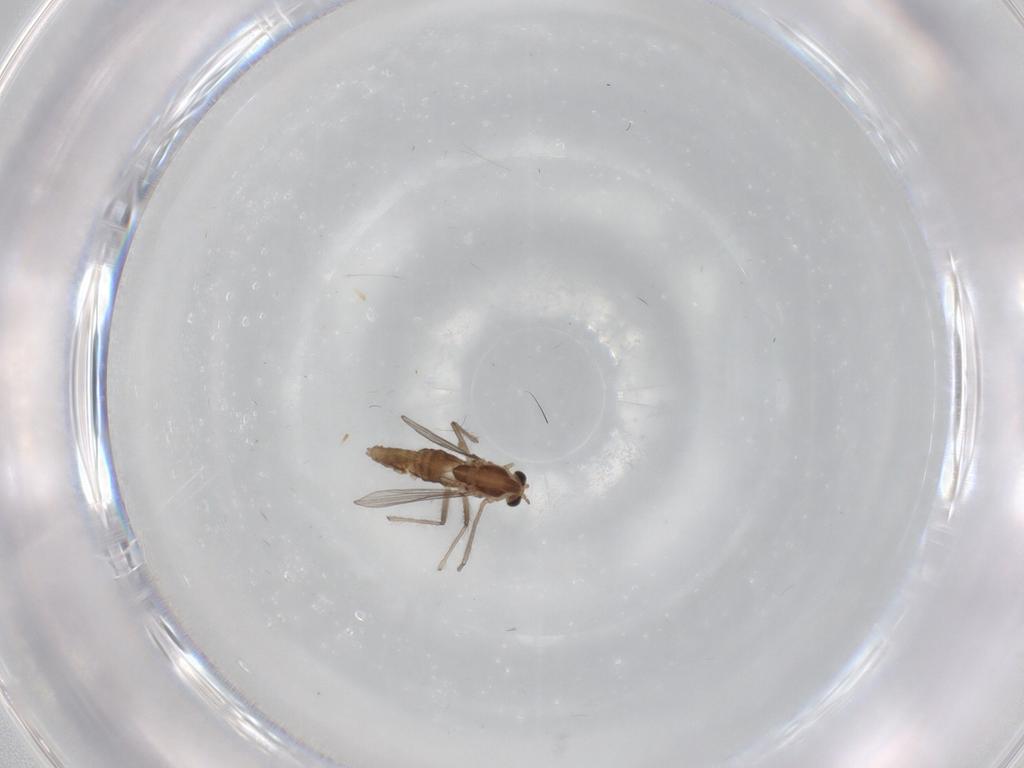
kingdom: Animalia
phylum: Arthropoda
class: Insecta
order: Diptera
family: Chironomidae
